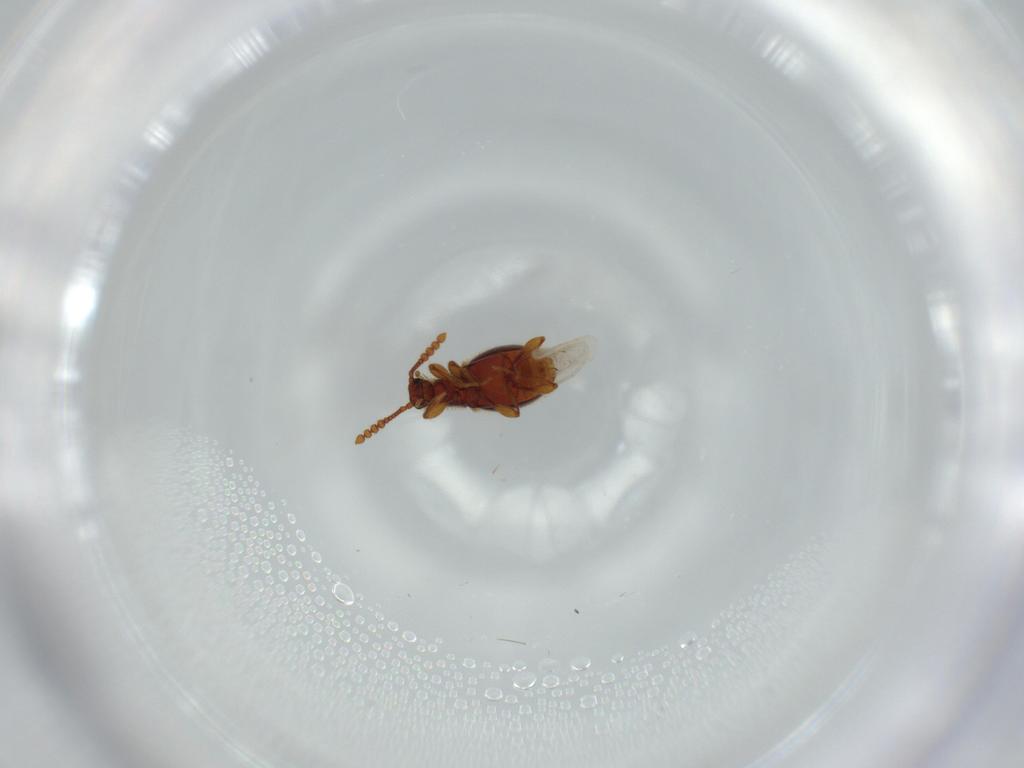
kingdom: Animalia
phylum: Arthropoda
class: Insecta
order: Coleoptera
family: Staphylinidae
